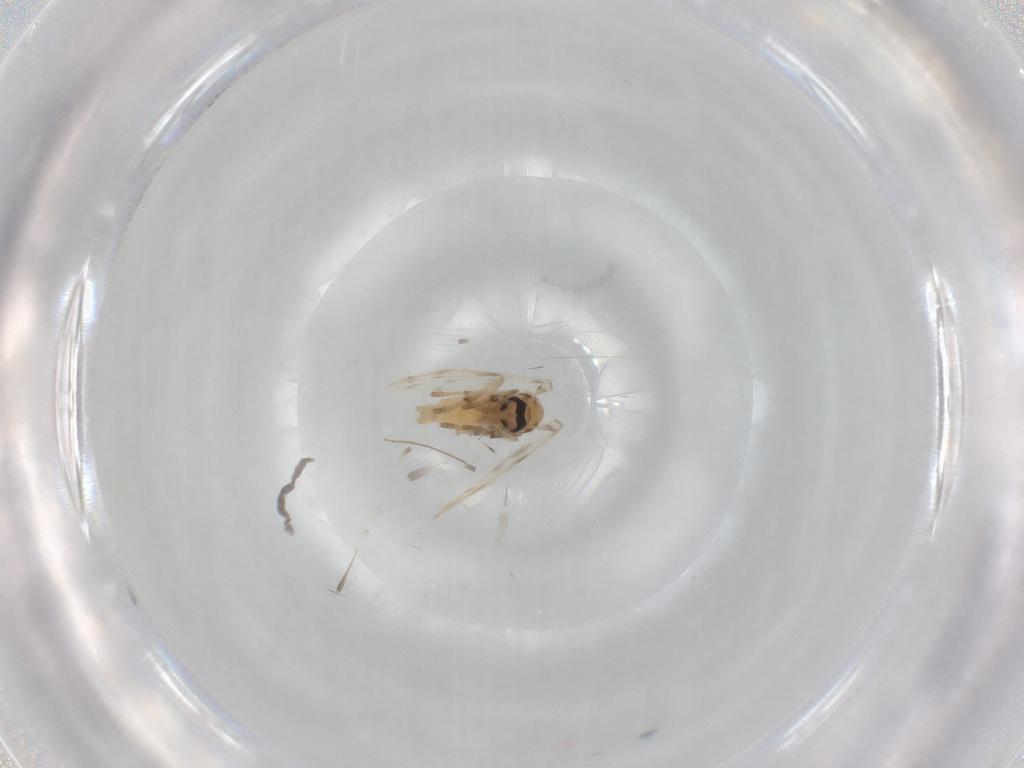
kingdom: Animalia
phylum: Arthropoda
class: Insecta
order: Diptera
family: Psychodidae
